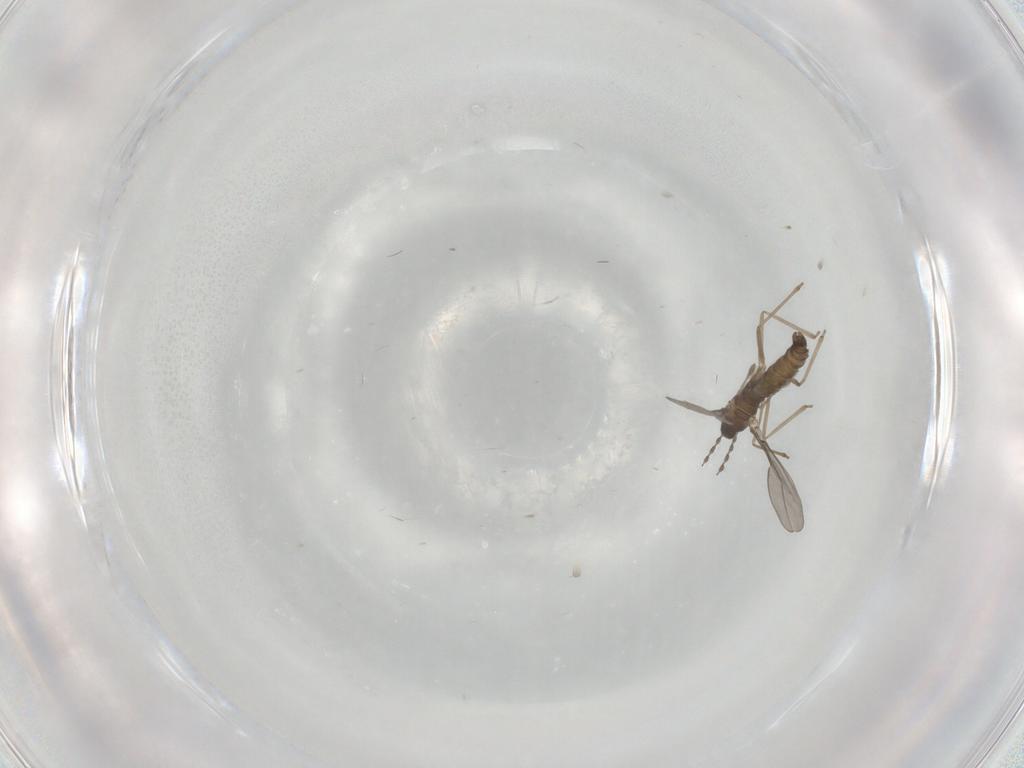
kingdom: Animalia
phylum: Arthropoda
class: Insecta
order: Diptera
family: Cecidomyiidae
